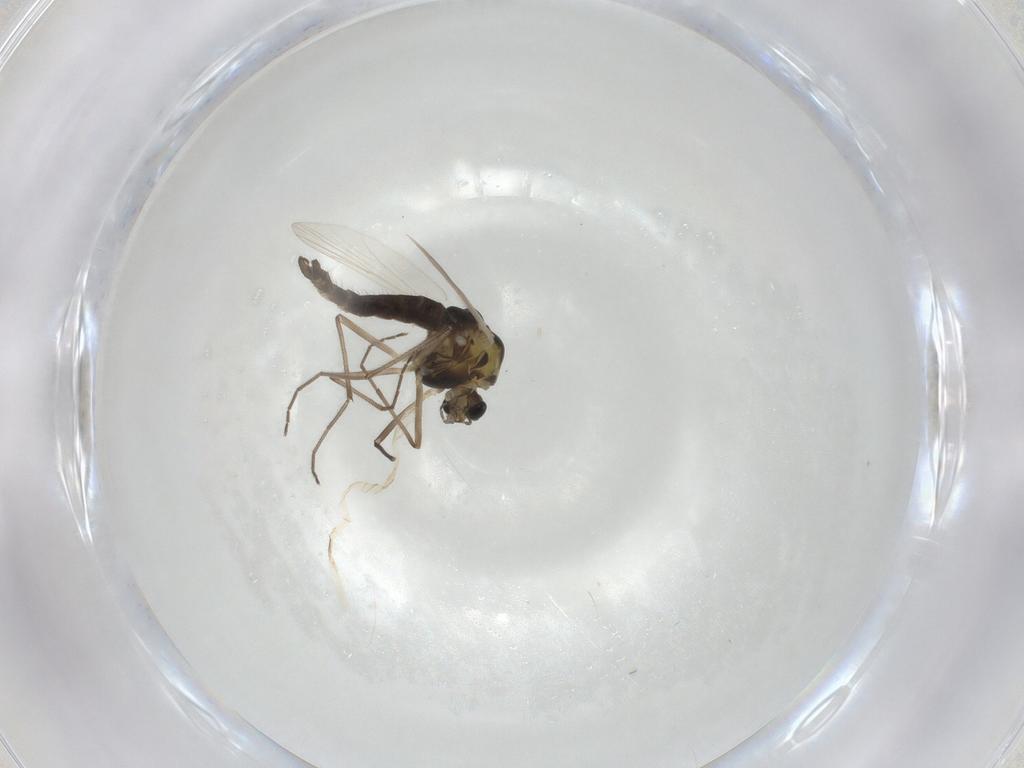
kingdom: Animalia
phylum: Arthropoda
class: Insecta
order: Diptera
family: Chironomidae
